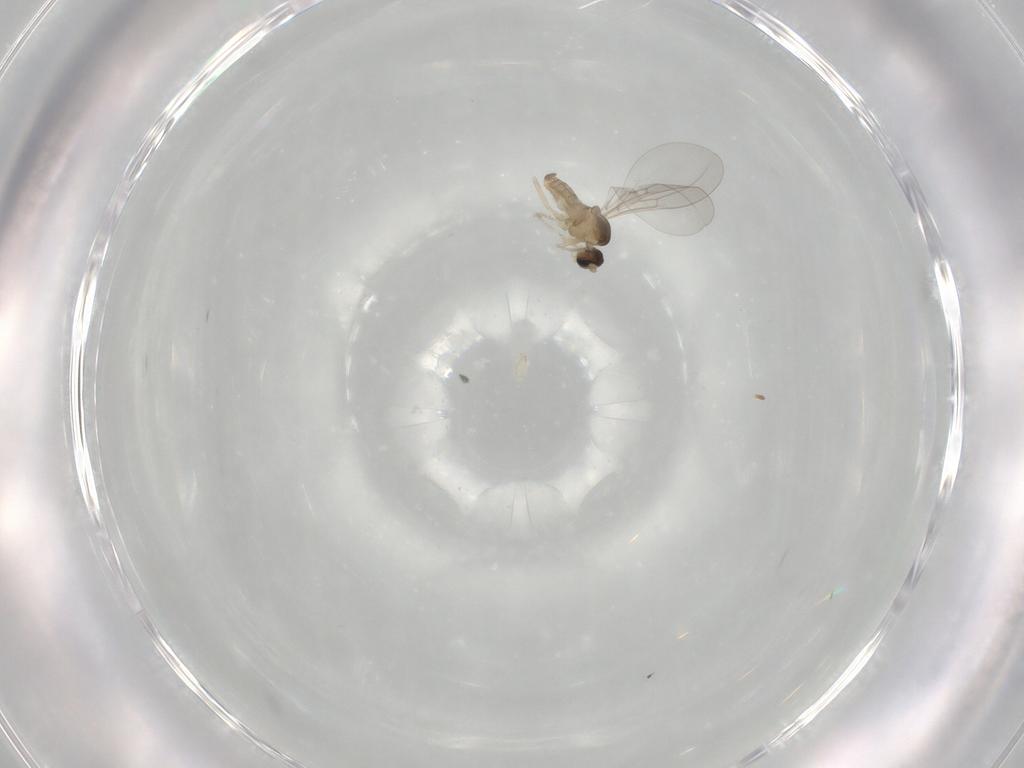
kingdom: Animalia
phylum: Arthropoda
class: Insecta
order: Diptera
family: Cecidomyiidae
